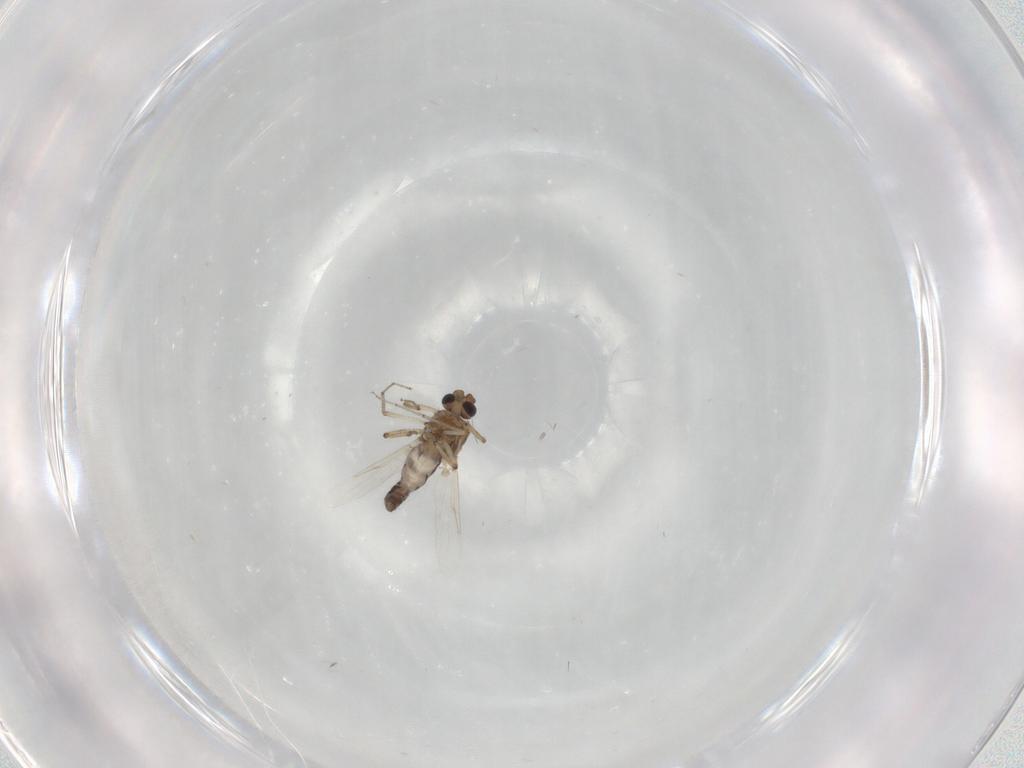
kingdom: Animalia
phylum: Arthropoda
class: Insecta
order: Diptera
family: Ceratopogonidae
